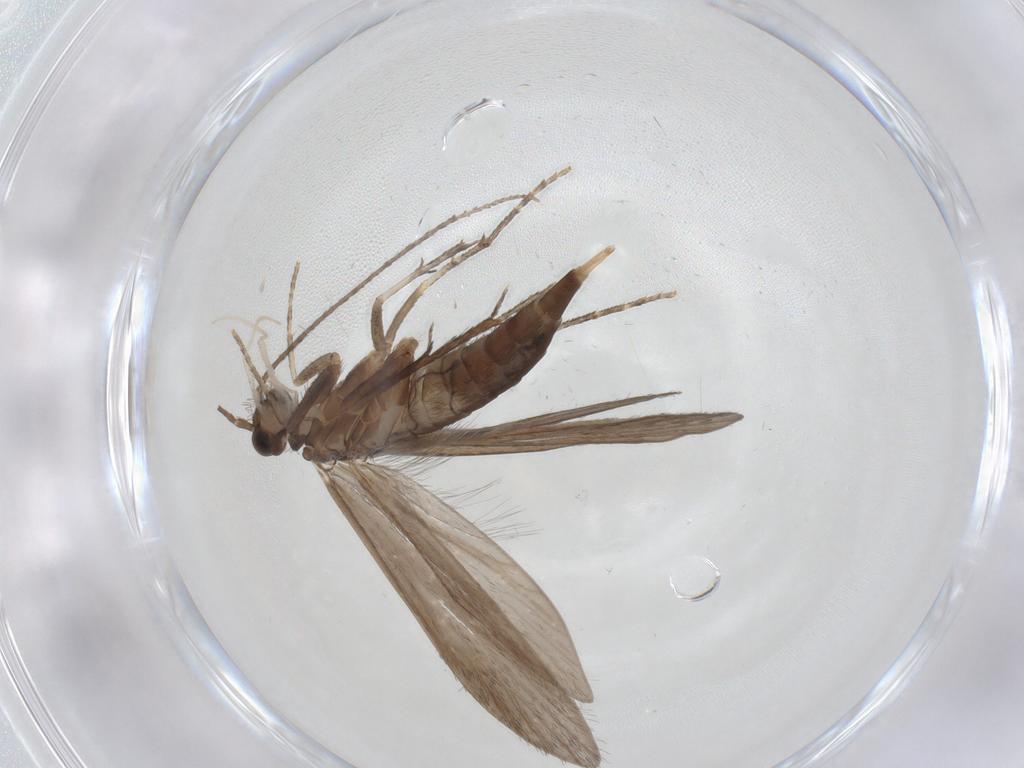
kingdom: Animalia
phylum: Arthropoda
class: Insecta
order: Trichoptera
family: Xiphocentronidae
